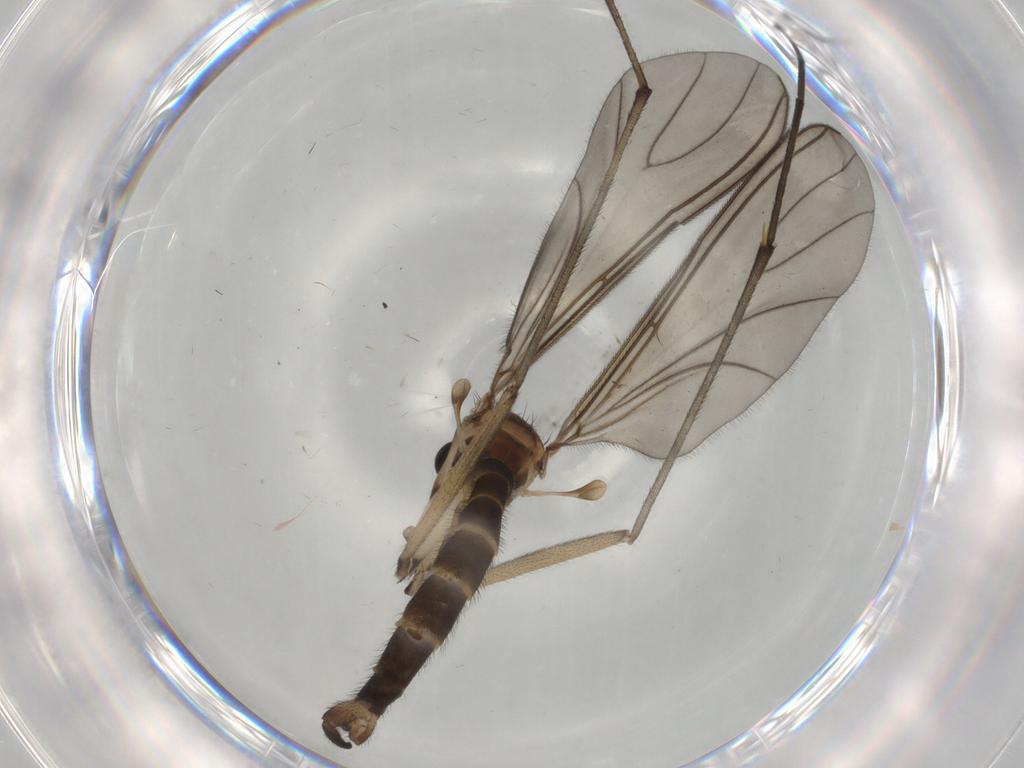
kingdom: Animalia
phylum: Arthropoda
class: Insecta
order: Diptera
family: Sciaridae
